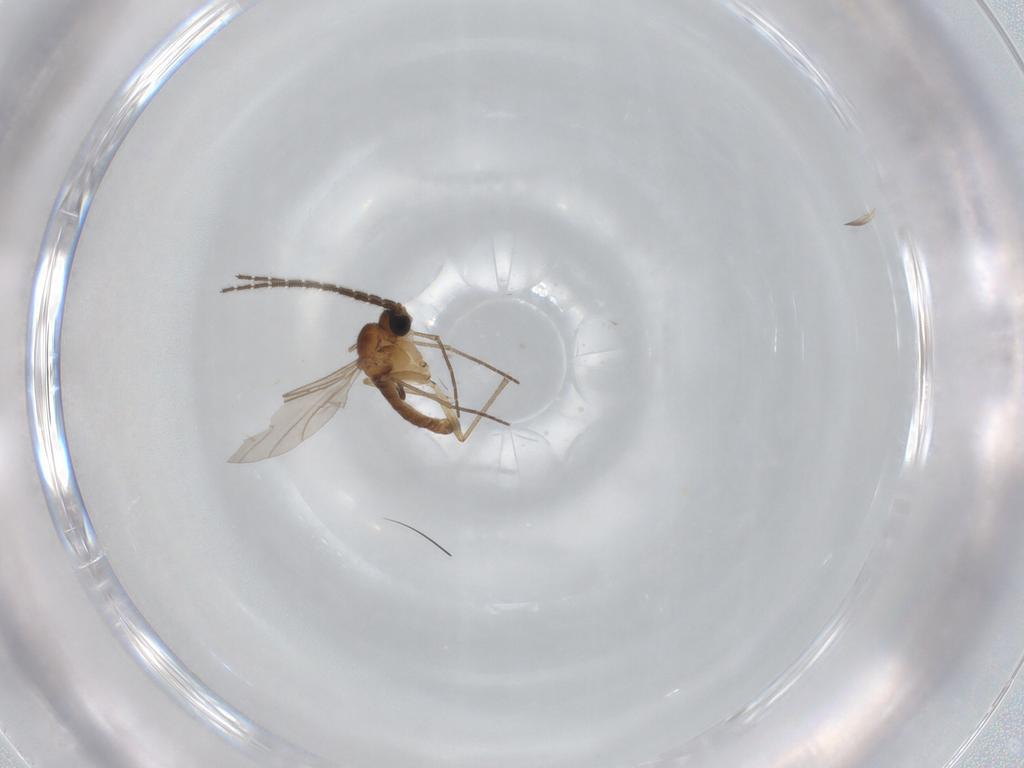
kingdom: Animalia
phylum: Arthropoda
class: Insecta
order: Diptera
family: Sciaridae
